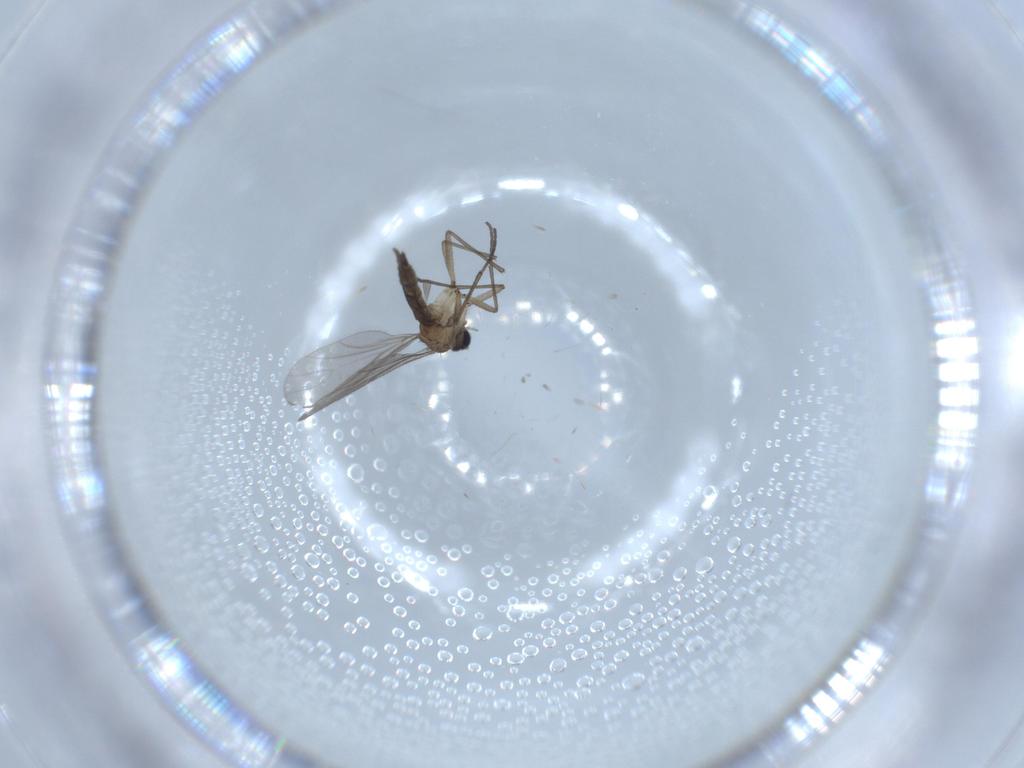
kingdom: Animalia
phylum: Arthropoda
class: Insecta
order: Diptera
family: Sciaridae
